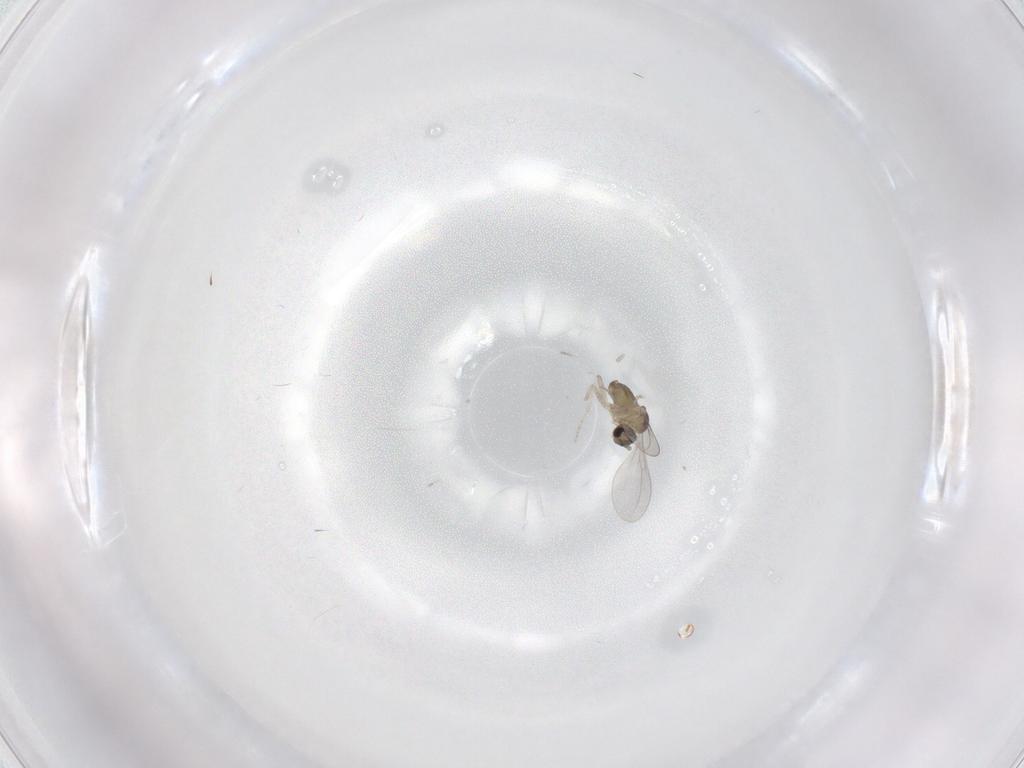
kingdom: Animalia
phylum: Arthropoda
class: Insecta
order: Diptera
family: Cecidomyiidae
